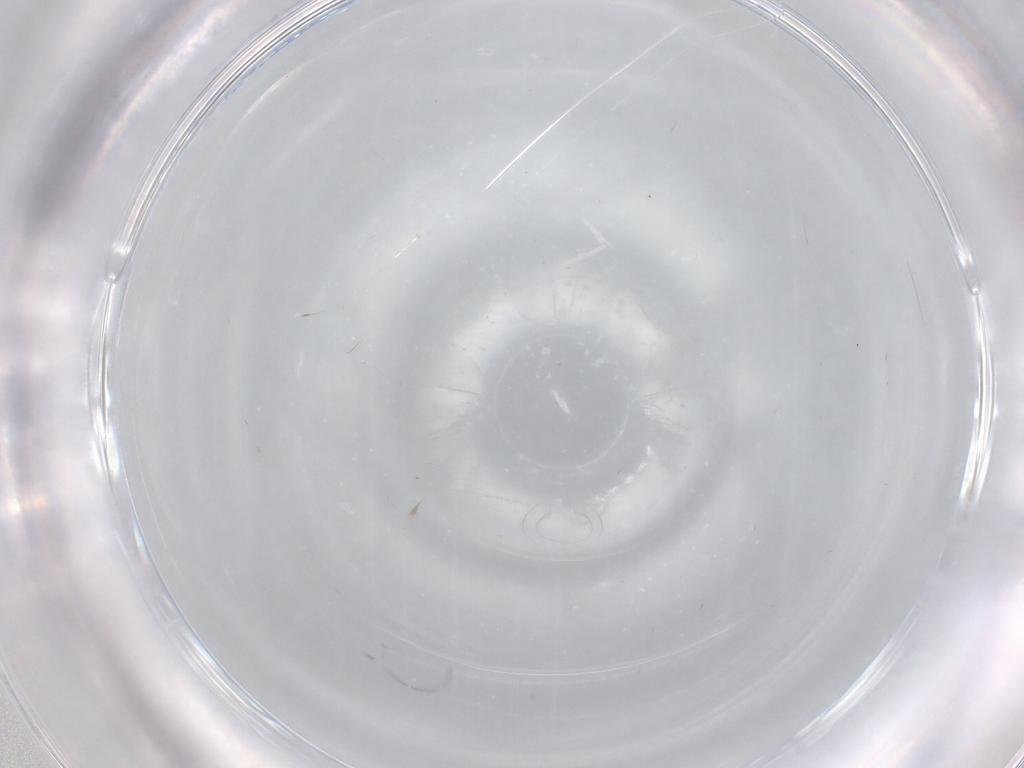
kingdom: Animalia
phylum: Arthropoda
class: Insecta
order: Diptera
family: Cecidomyiidae
